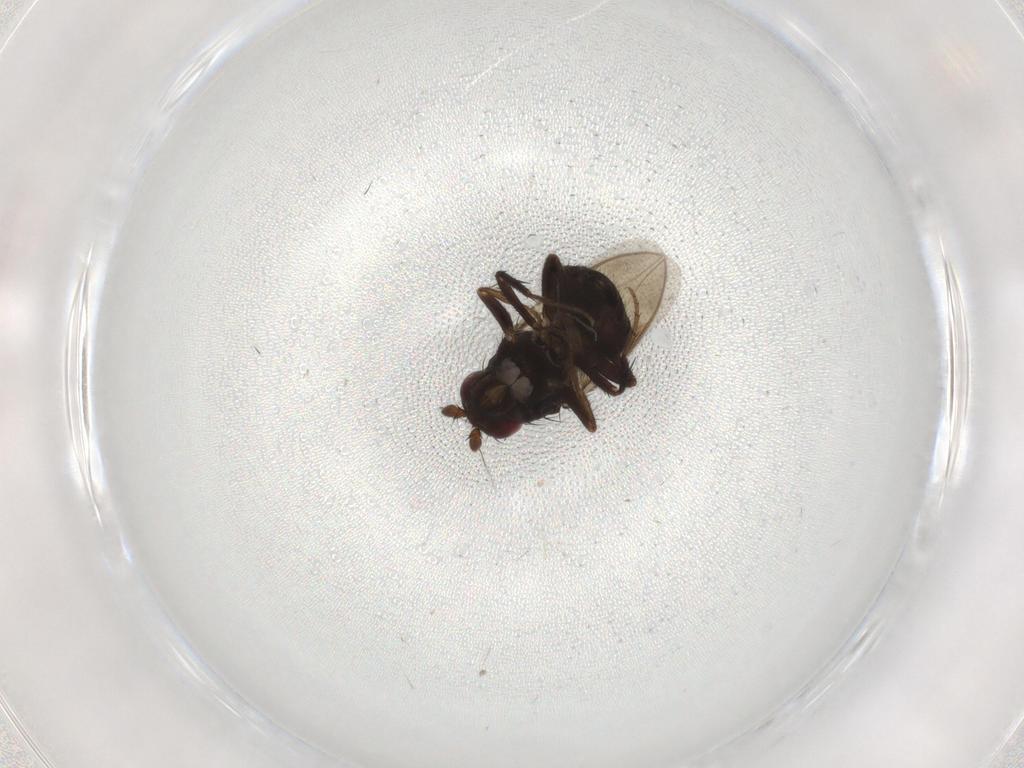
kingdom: Animalia
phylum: Arthropoda
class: Insecta
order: Diptera
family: Sphaeroceridae
